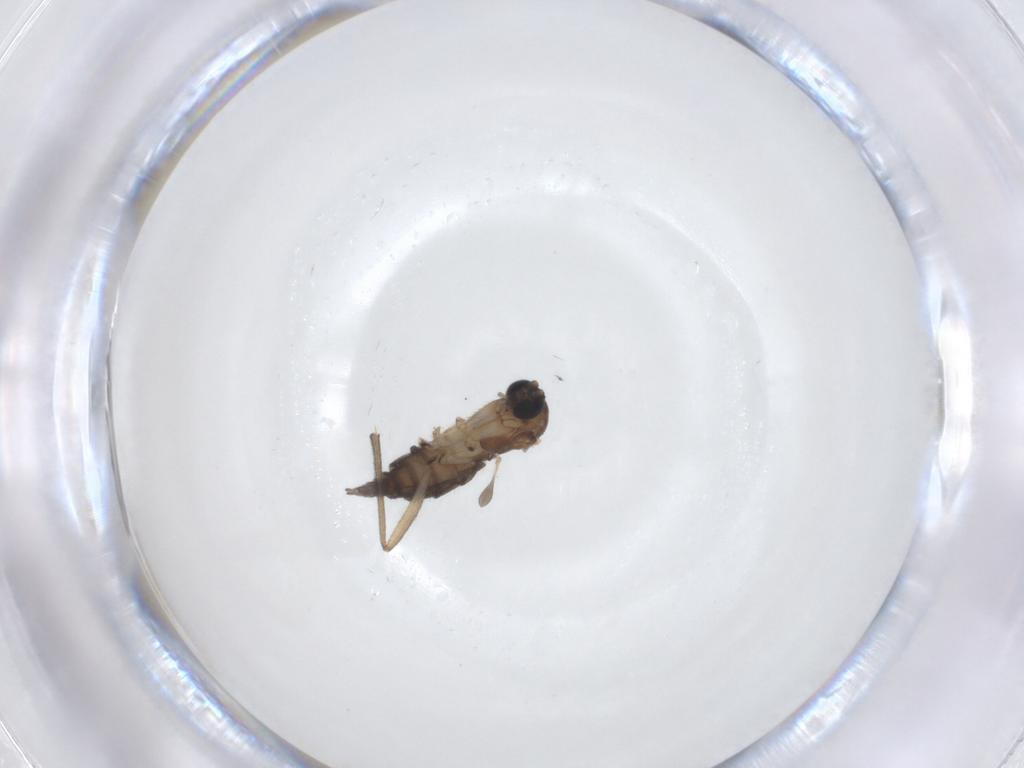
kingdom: Animalia
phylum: Arthropoda
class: Insecta
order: Diptera
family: Sciaridae
